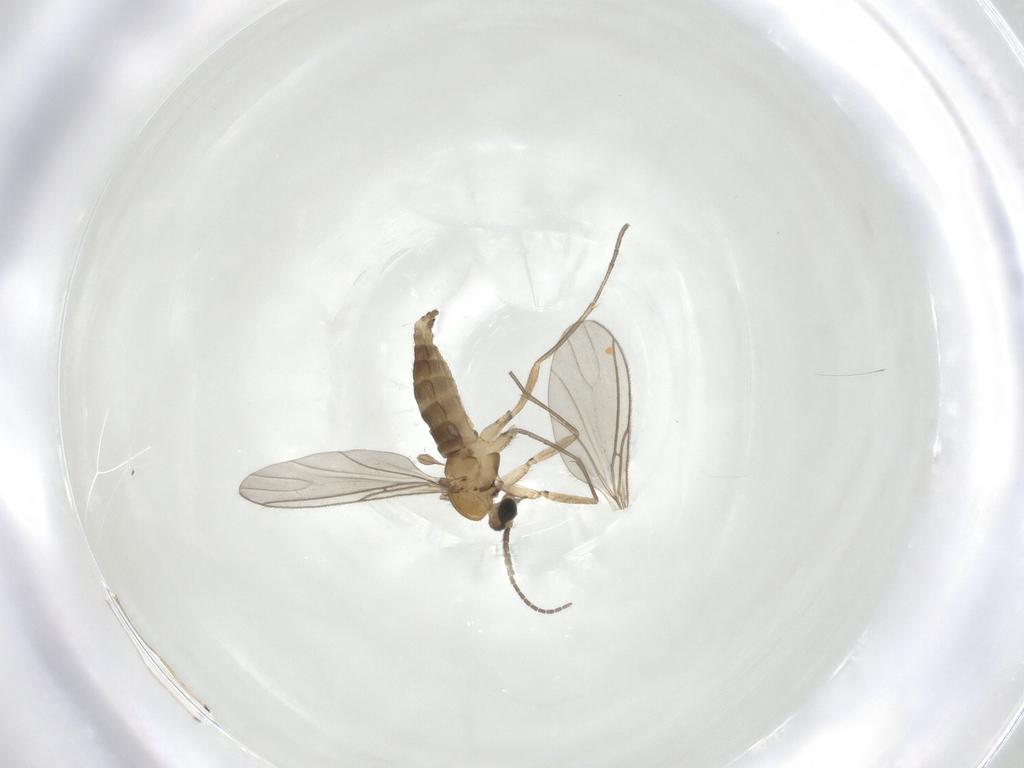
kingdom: Animalia
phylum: Arthropoda
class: Insecta
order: Diptera
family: Sciaridae
